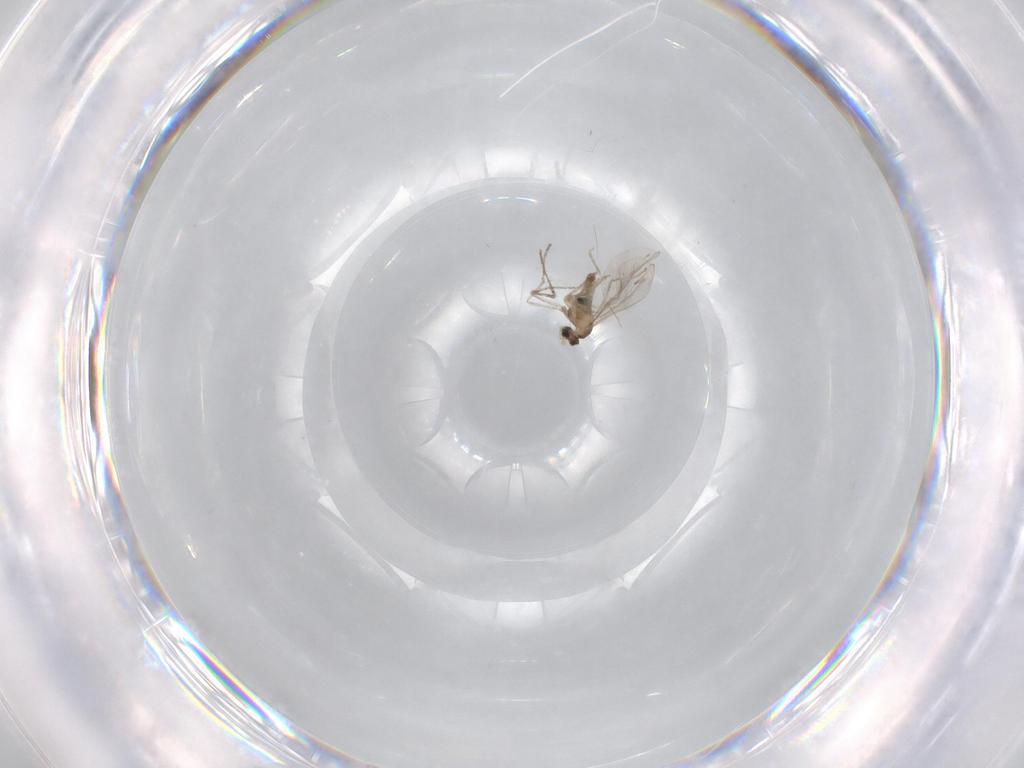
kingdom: Animalia
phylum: Arthropoda
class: Insecta
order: Diptera
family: Cecidomyiidae
